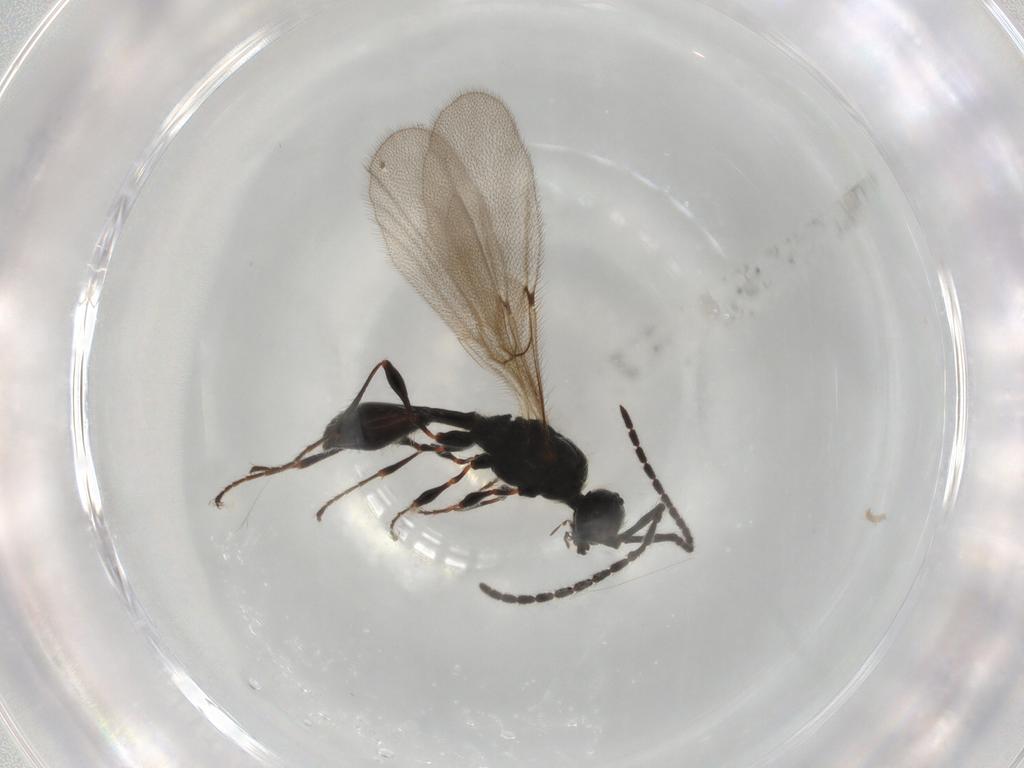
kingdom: Animalia
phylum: Arthropoda
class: Insecta
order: Hymenoptera
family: Diapriidae
